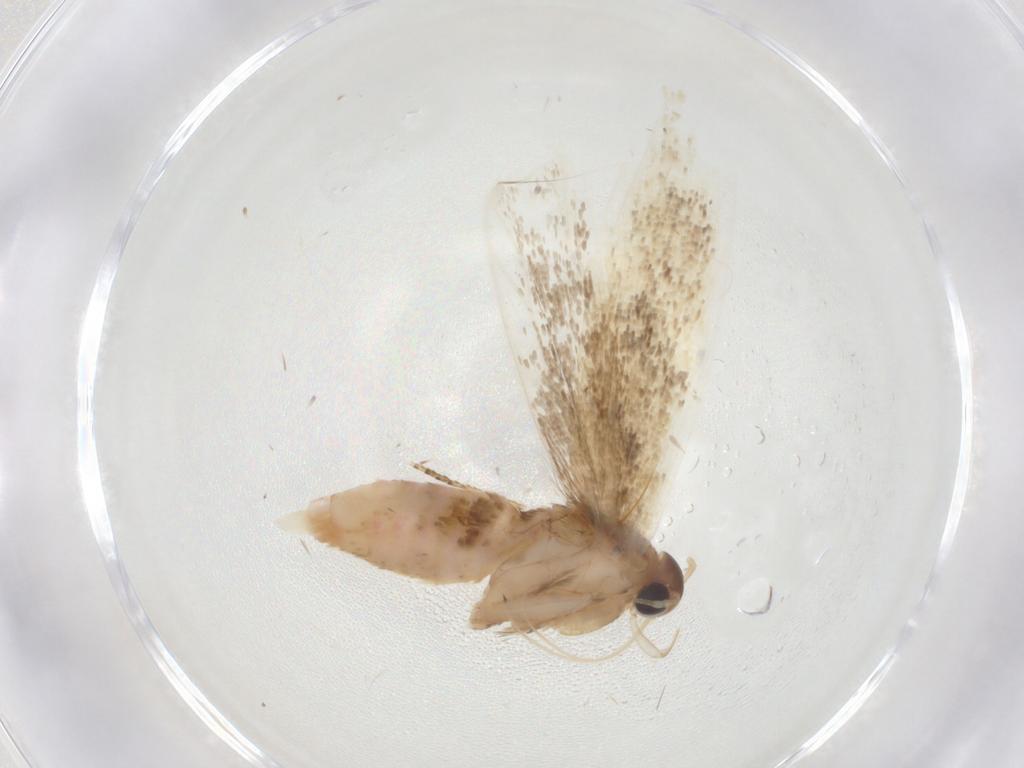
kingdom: Animalia
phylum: Arthropoda
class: Insecta
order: Lepidoptera
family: Gelechiidae
